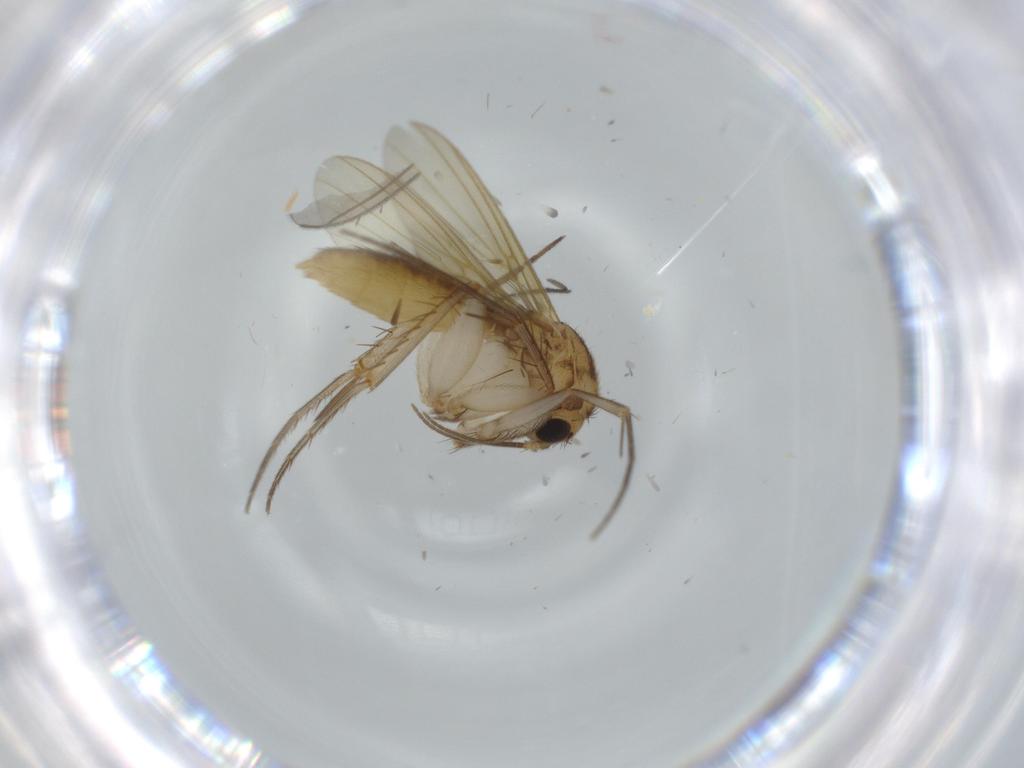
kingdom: Animalia
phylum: Arthropoda
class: Insecta
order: Diptera
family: Mycetophilidae
